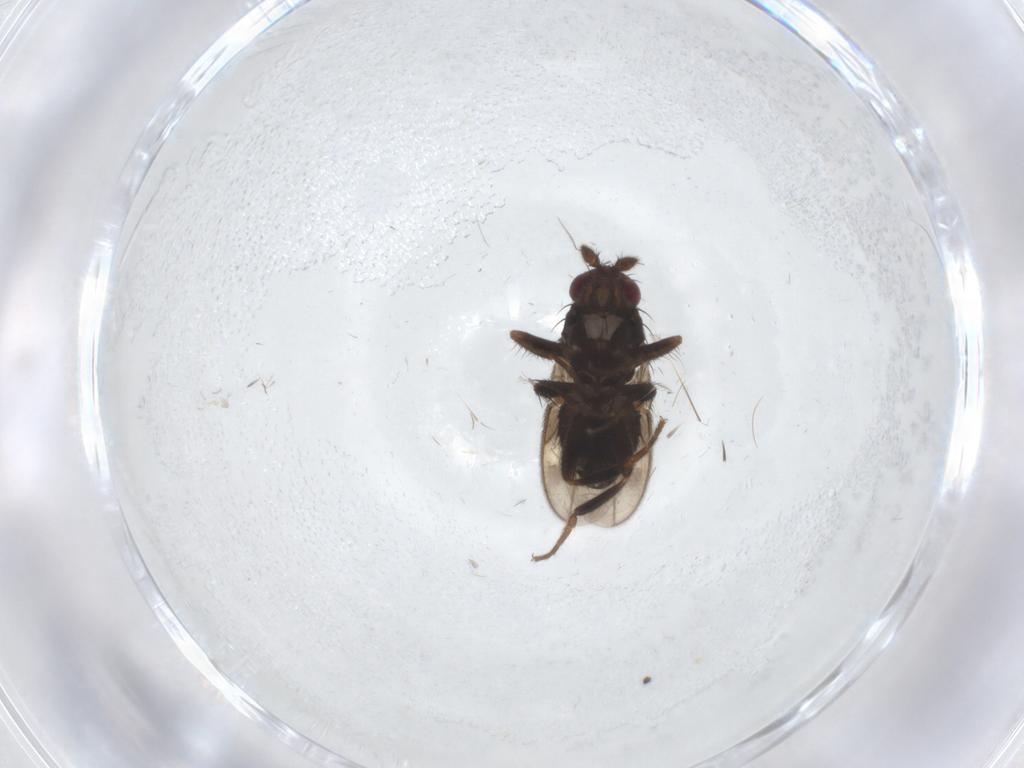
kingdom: Animalia
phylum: Arthropoda
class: Insecta
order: Diptera
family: Sphaeroceridae
